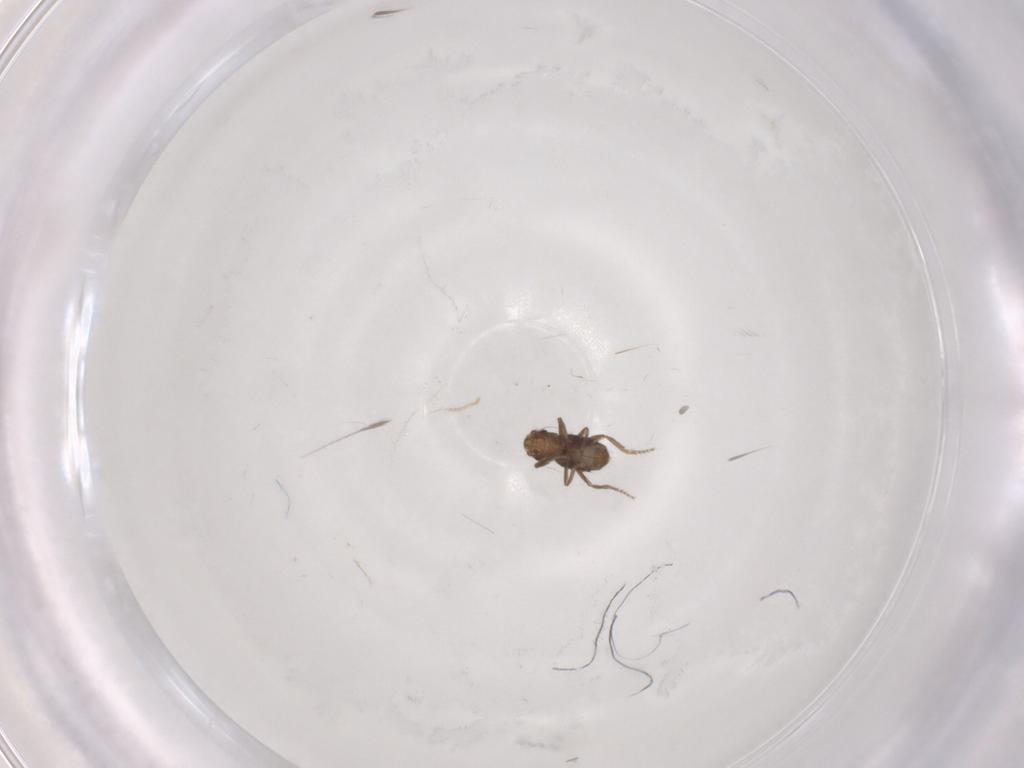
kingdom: Animalia
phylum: Arthropoda
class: Insecta
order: Diptera
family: Phoridae
